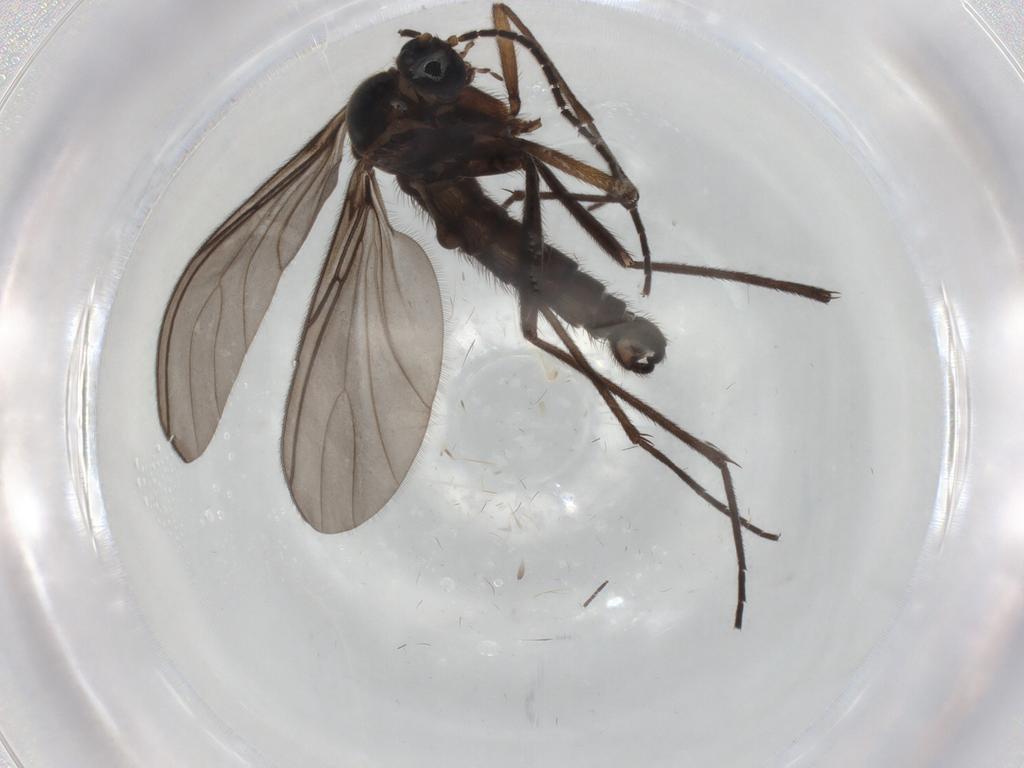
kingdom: Animalia
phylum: Arthropoda
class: Insecta
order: Diptera
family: Sciaridae
